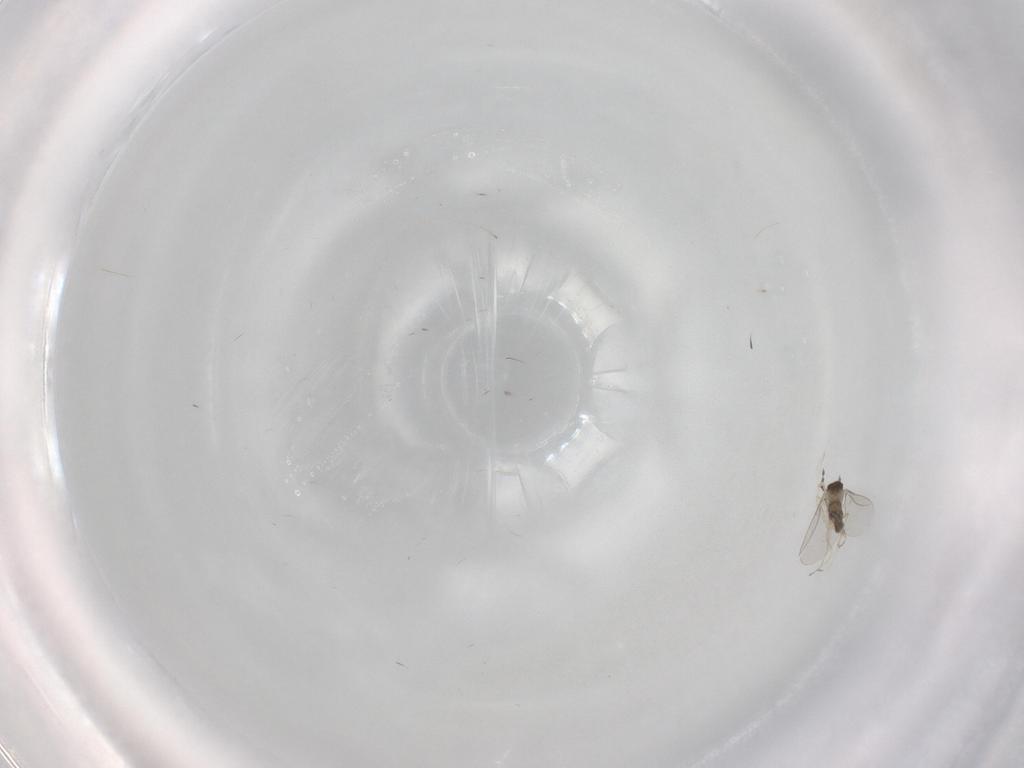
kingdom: Animalia
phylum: Arthropoda
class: Insecta
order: Diptera
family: Cecidomyiidae
